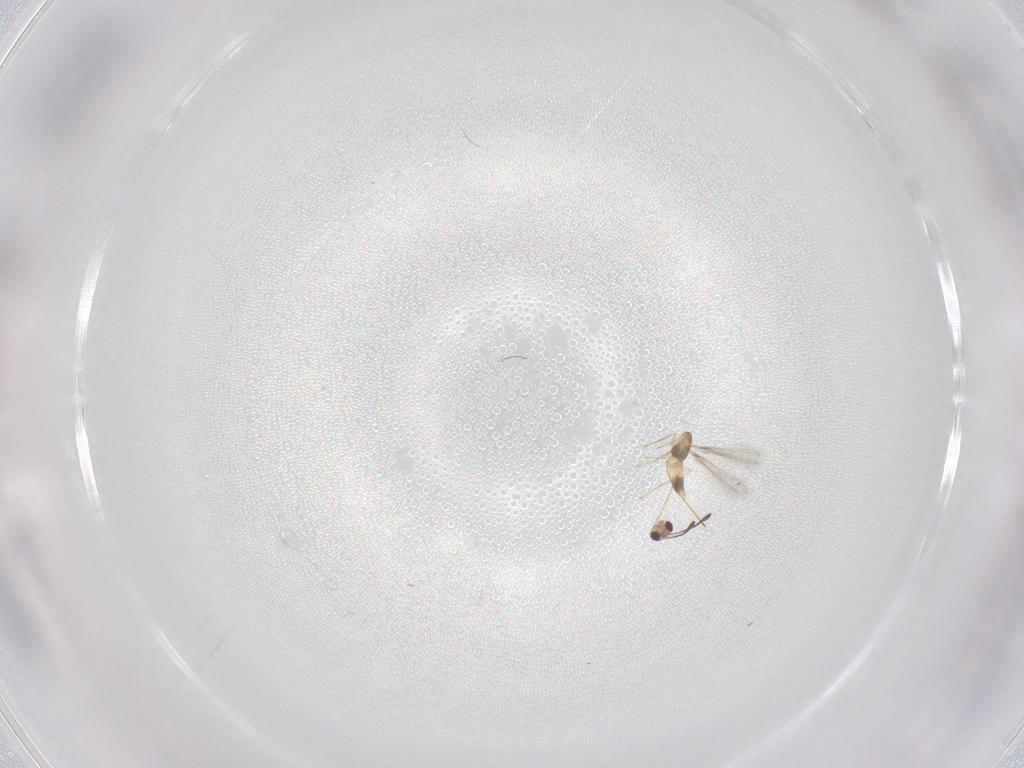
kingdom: Animalia
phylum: Arthropoda
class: Insecta
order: Hymenoptera
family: Mymaridae
